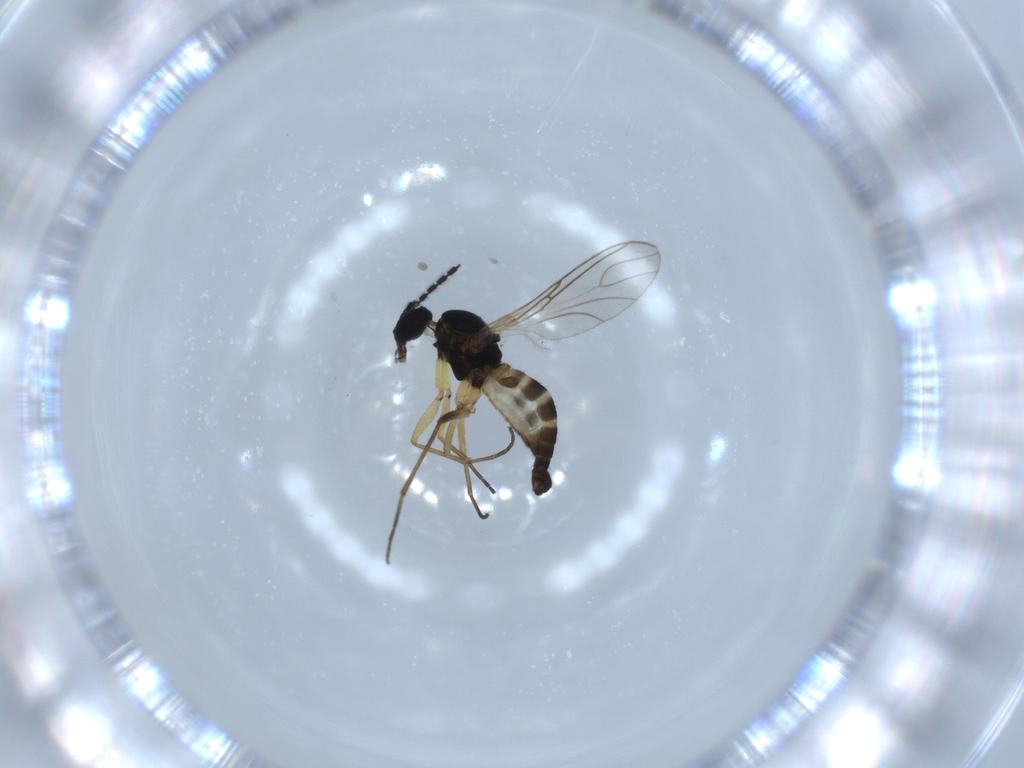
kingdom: Animalia
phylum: Arthropoda
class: Insecta
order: Diptera
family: Sciaridae
